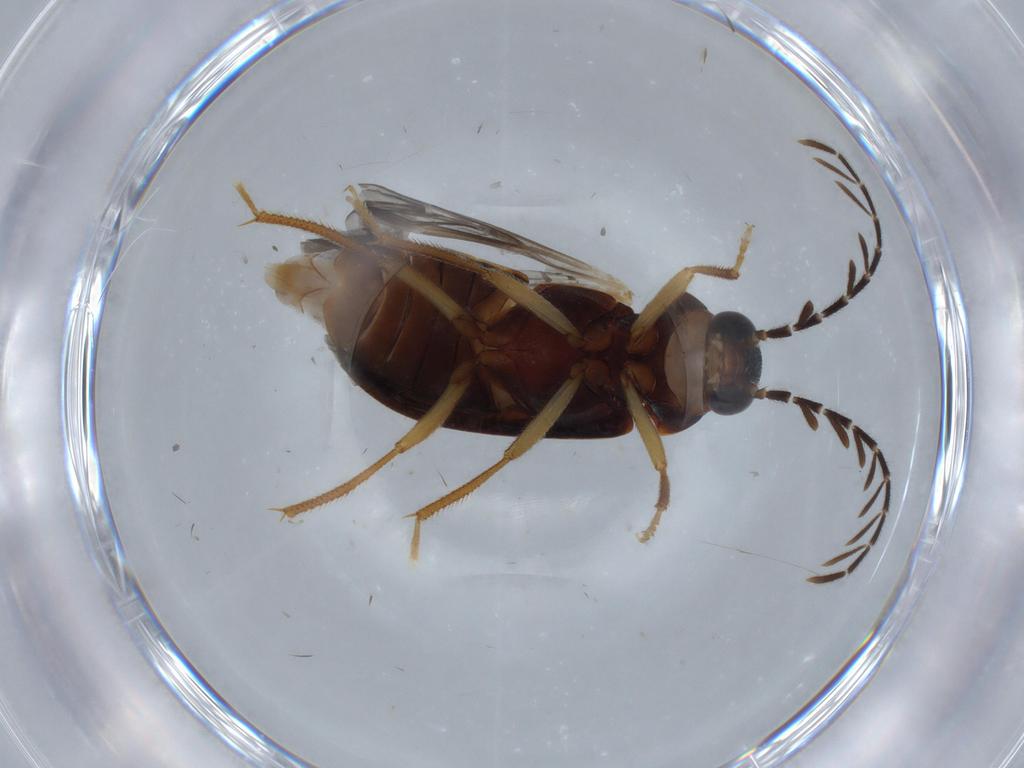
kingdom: Animalia
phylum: Arthropoda
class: Insecta
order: Coleoptera
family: Ptilodactylidae
